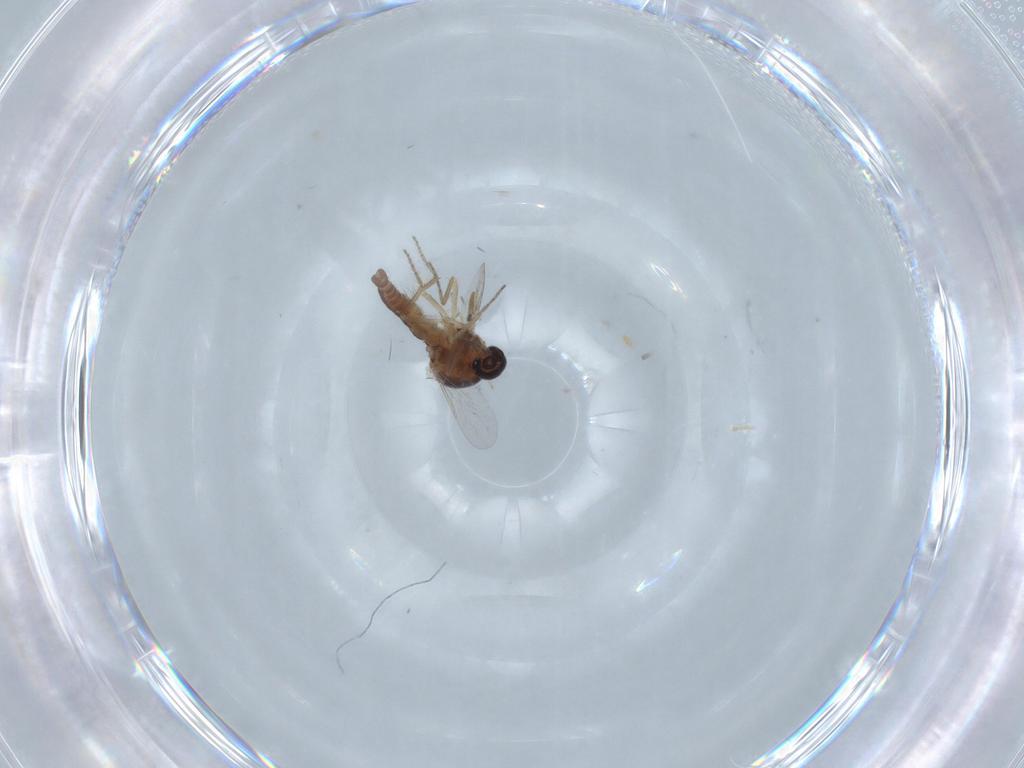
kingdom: Animalia
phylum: Arthropoda
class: Insecta
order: Diptera
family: Ceratopogonidae
